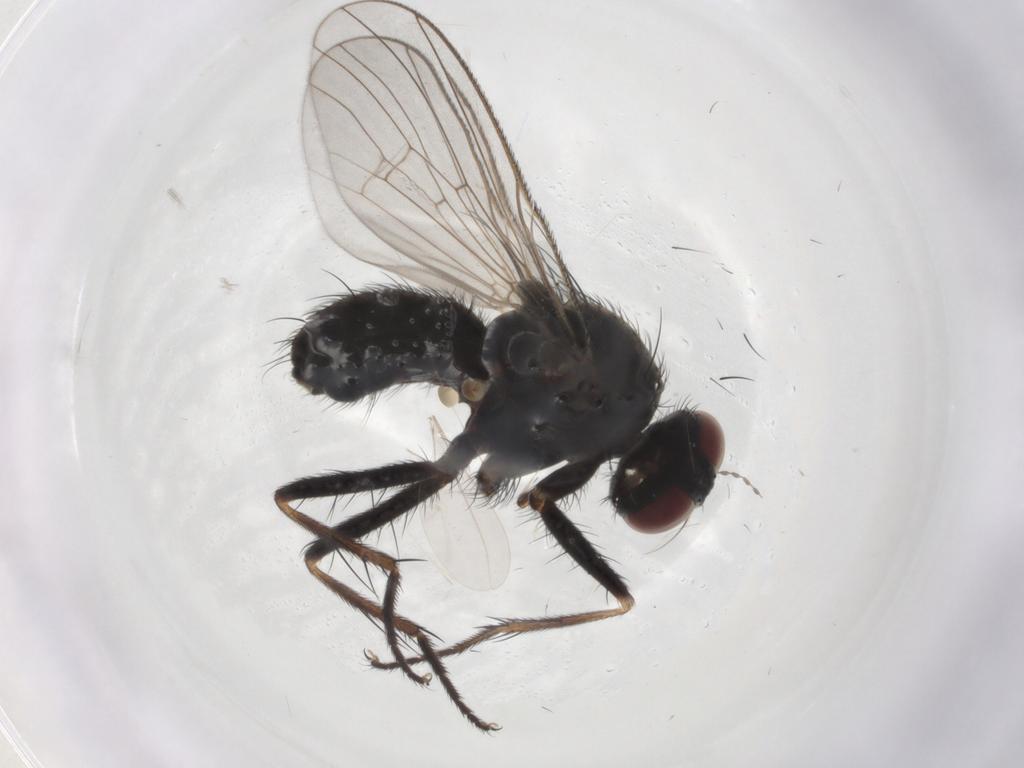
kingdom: Animalia
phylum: Arthropoda
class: Insecta
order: Diptera
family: Muscidae
